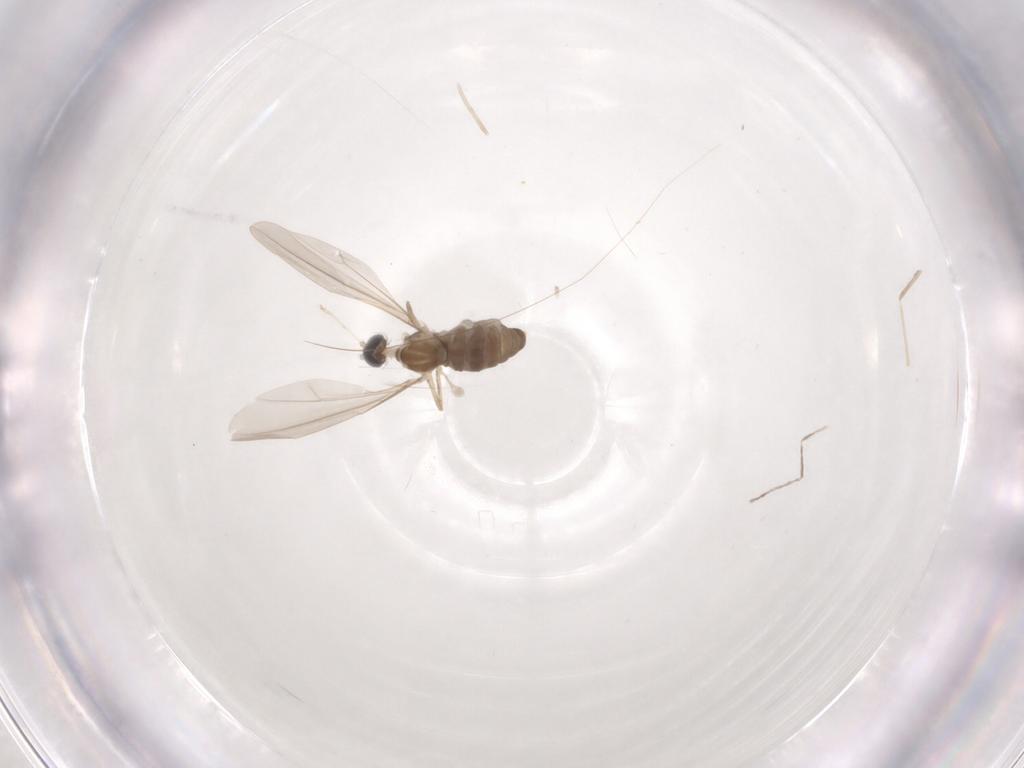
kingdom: Animalia
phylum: Arthropoda
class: Insecta
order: Diptera
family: Cecidomyiidae
